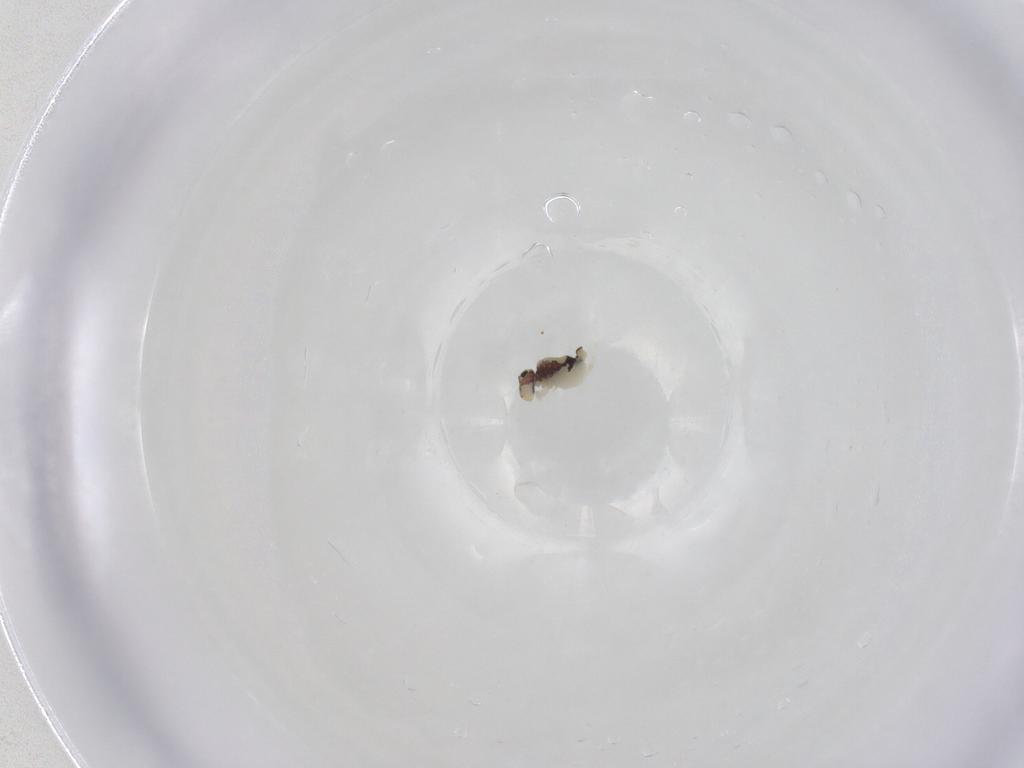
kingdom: Animalia
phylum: Arthropoda
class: Collembola
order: Symphypleona
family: Bourletiellidae
